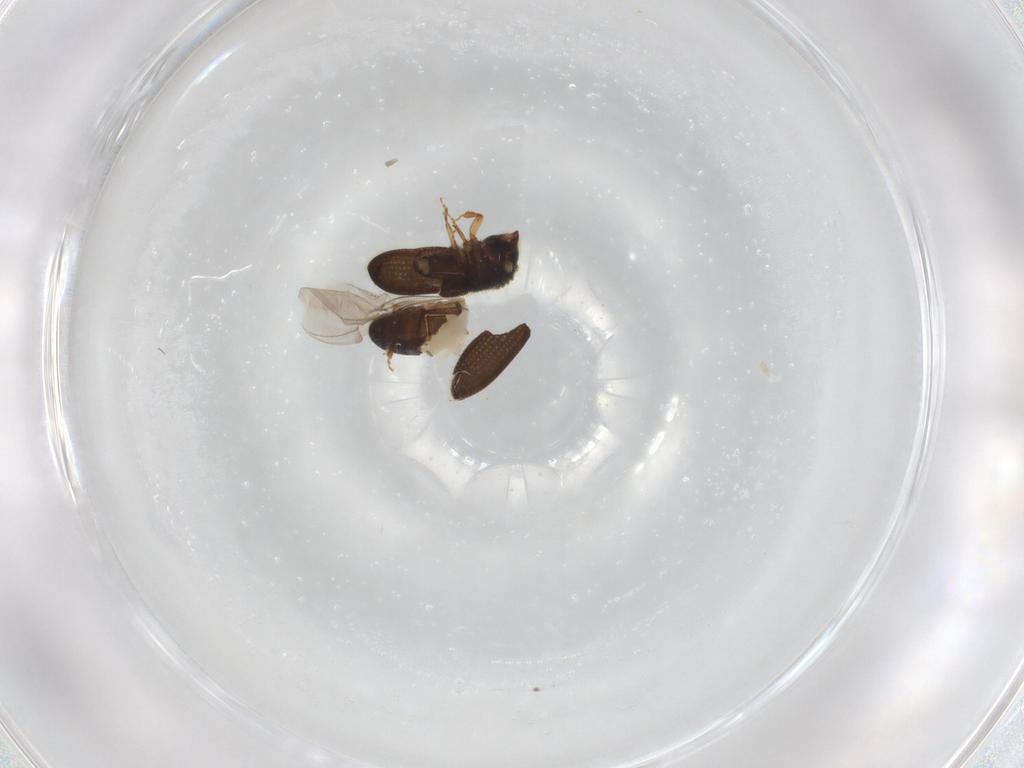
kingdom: Animalia
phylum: Arthropoda
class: Insecta
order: Coleoptera
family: Curculionidae
